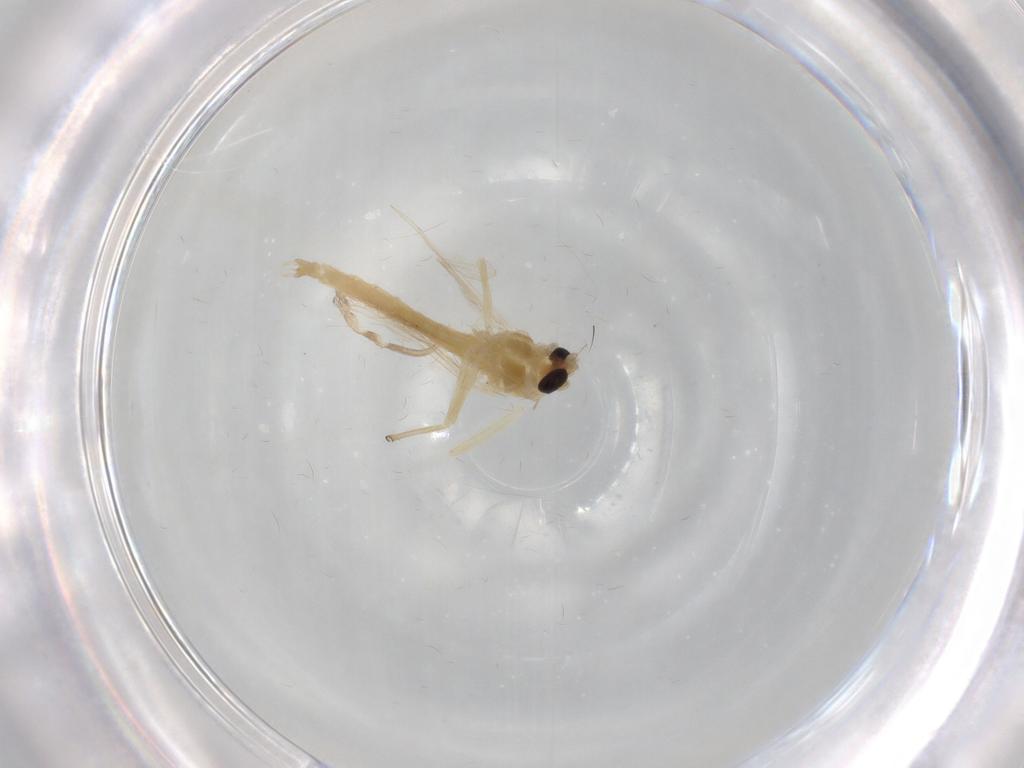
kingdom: Animalia
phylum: Arthropoda
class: Insecta
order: Diptera
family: Chironomidae
